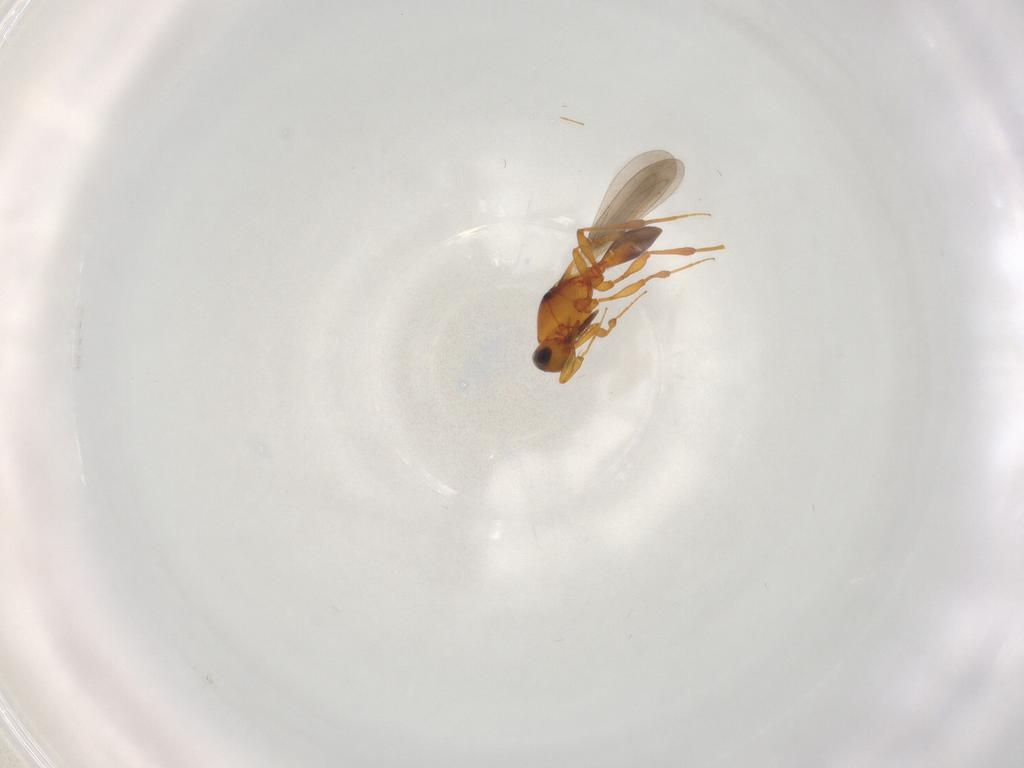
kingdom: Animalia
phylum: Arthropoda
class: Insecta
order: Hymenoptera
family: Platygastridae
